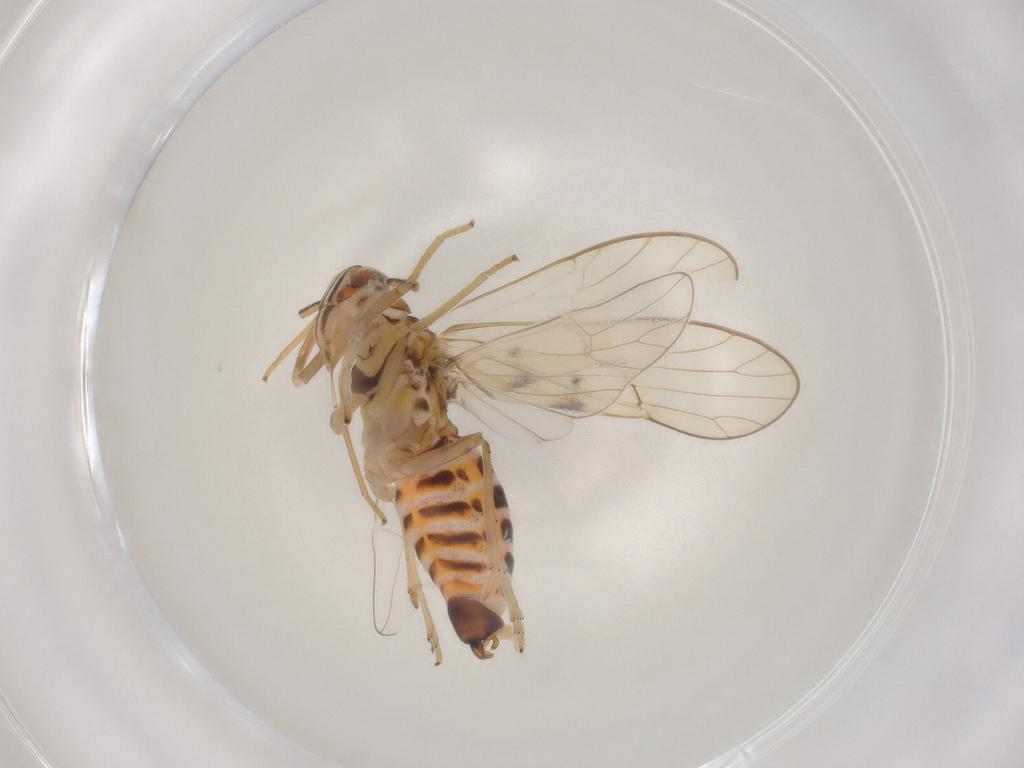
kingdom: Animalia
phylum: Arthropoda
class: Insecta
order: Hemiptera
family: Delphacidae
